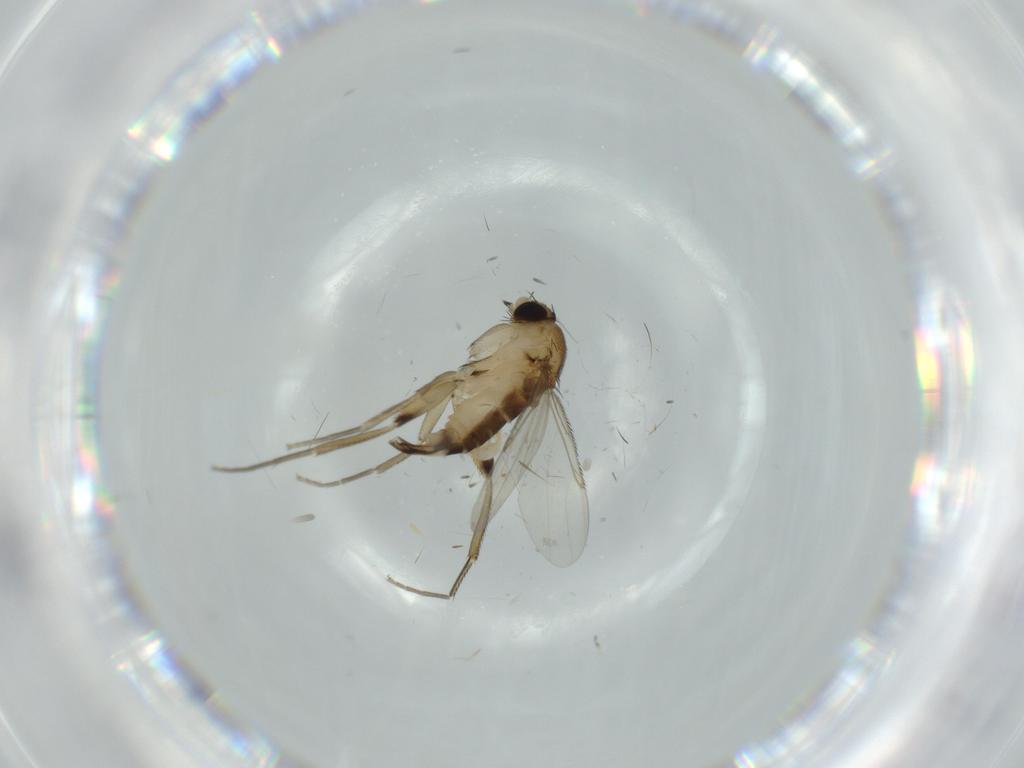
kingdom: Animalia
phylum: Arthropoda
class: Insecta
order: Diptera
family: Phoridae
